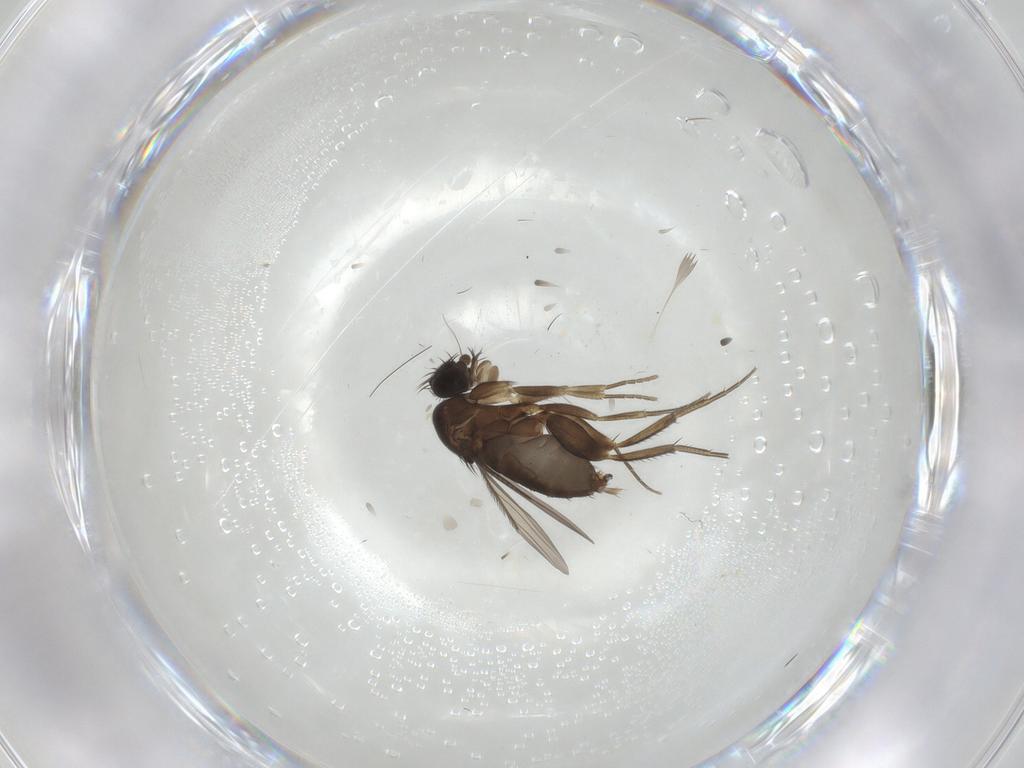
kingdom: Animalia
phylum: Arthropoda
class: Insecta
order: Diptera
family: Phoridae
